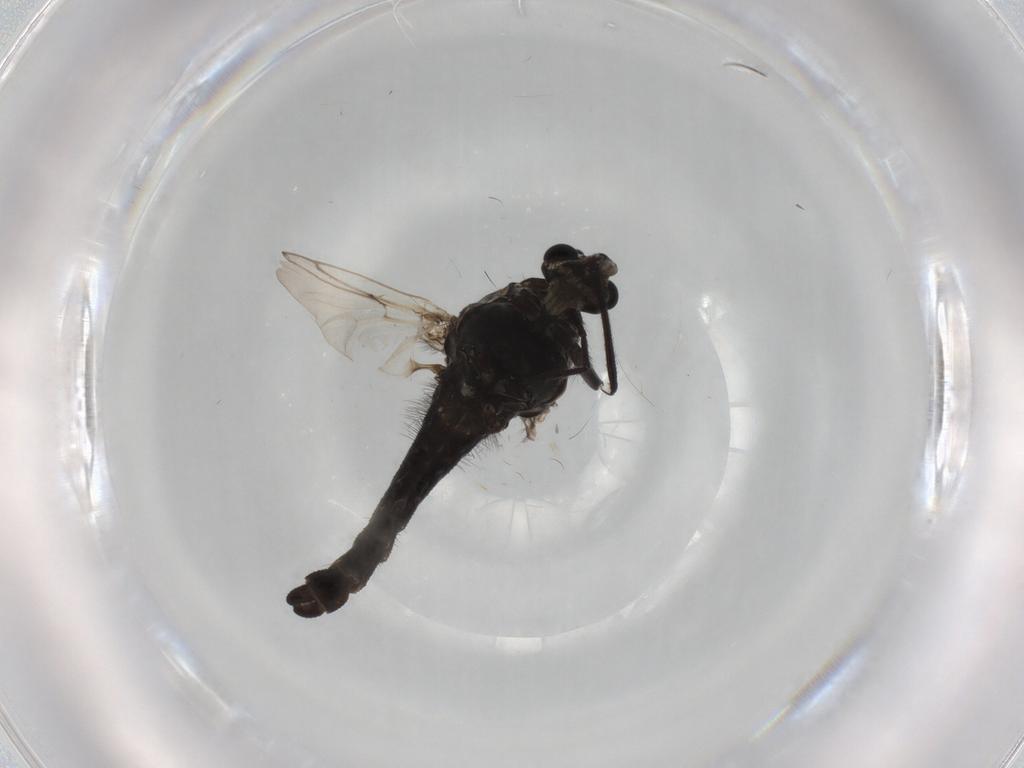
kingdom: Animalia
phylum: Arthropoda
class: Insecta
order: Diptera
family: Chironomidae
